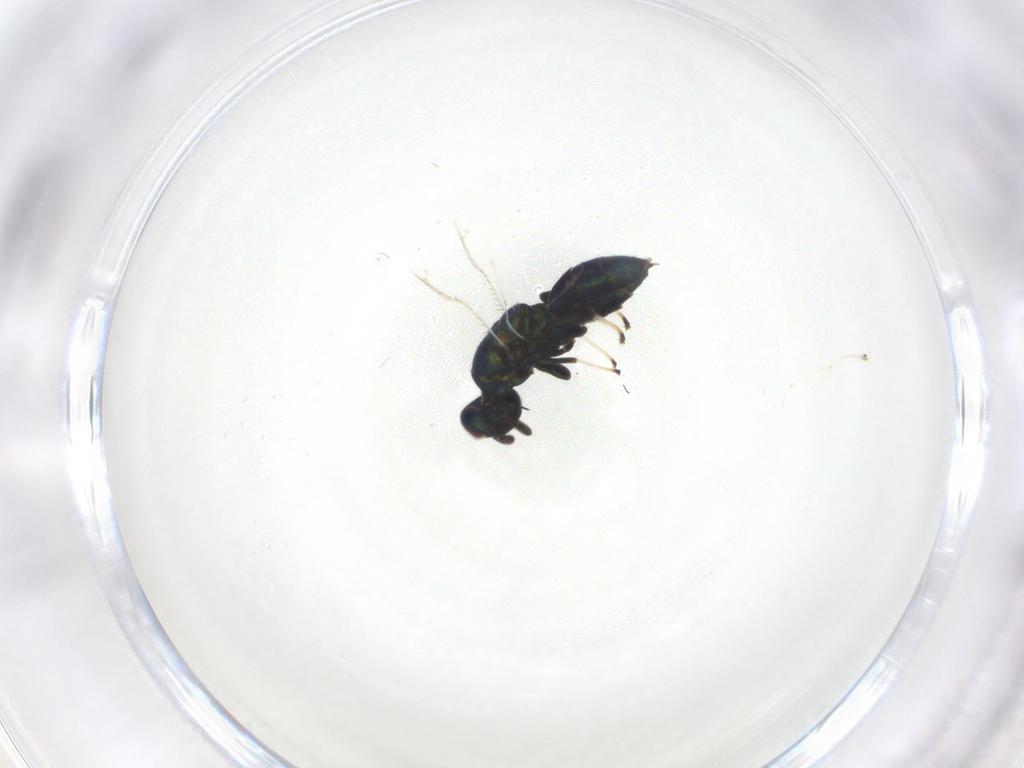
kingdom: Animalia
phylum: Arthropoda
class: Insecta
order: Hymenoptera
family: Pteromalidae
